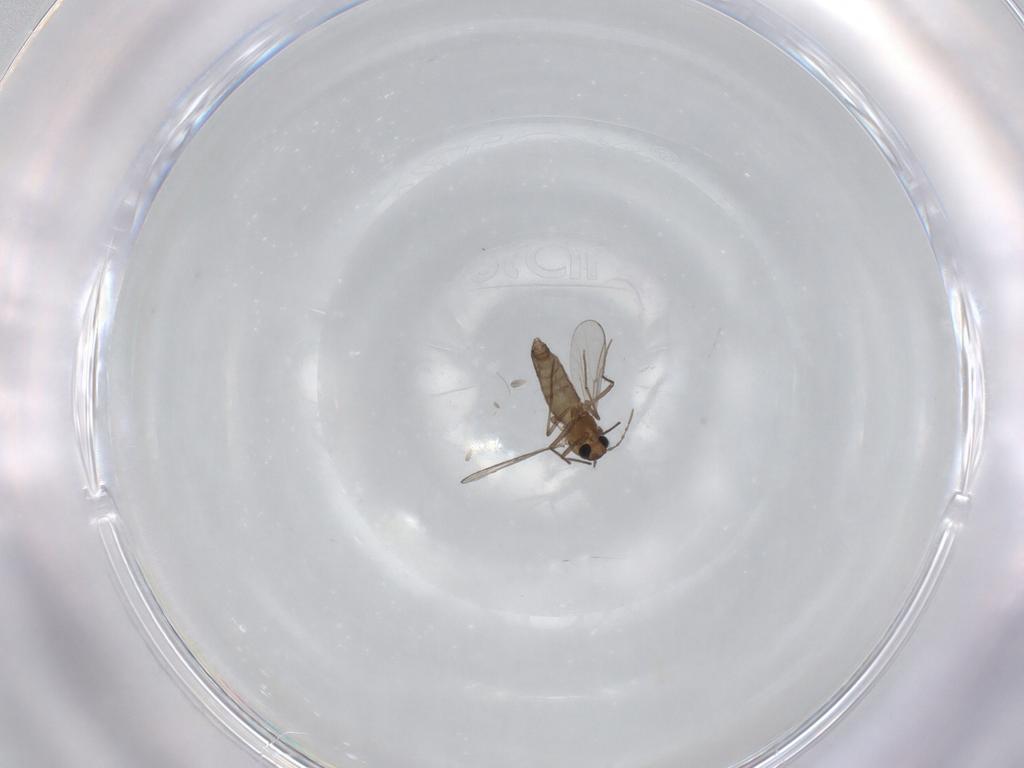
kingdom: Animalia
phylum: Arthropoda
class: Insecta
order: Diptera
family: Chironomidae
